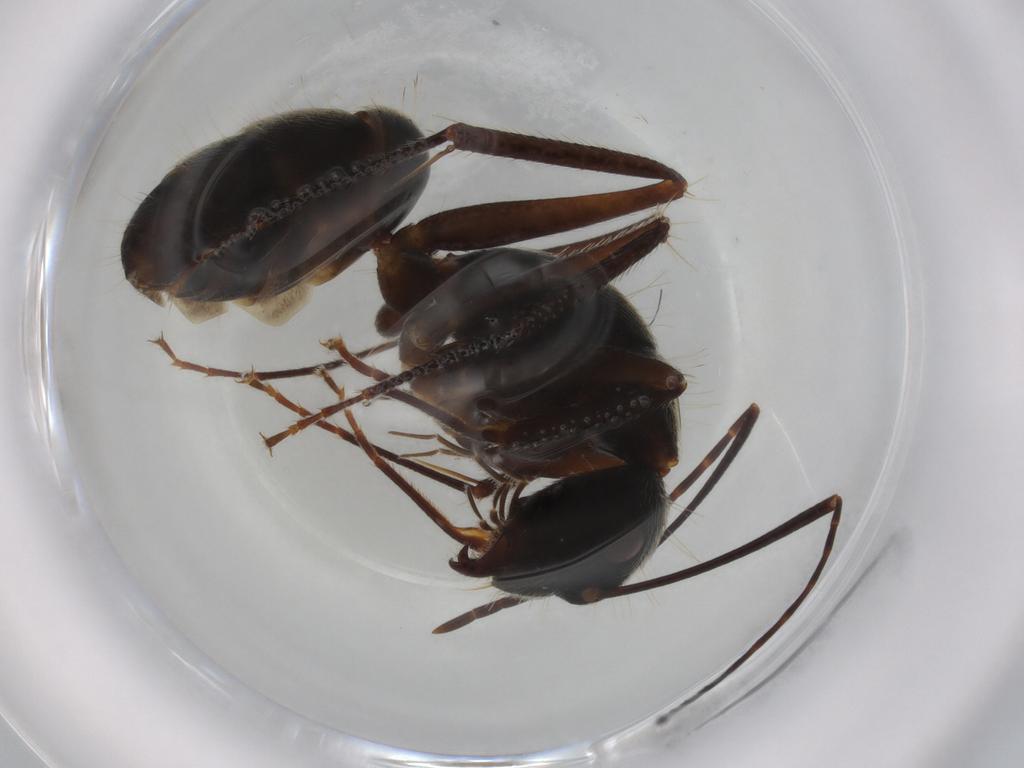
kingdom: Animalia
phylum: Arthropoda
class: Insecta
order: Hymenoptera
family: Formicidae
